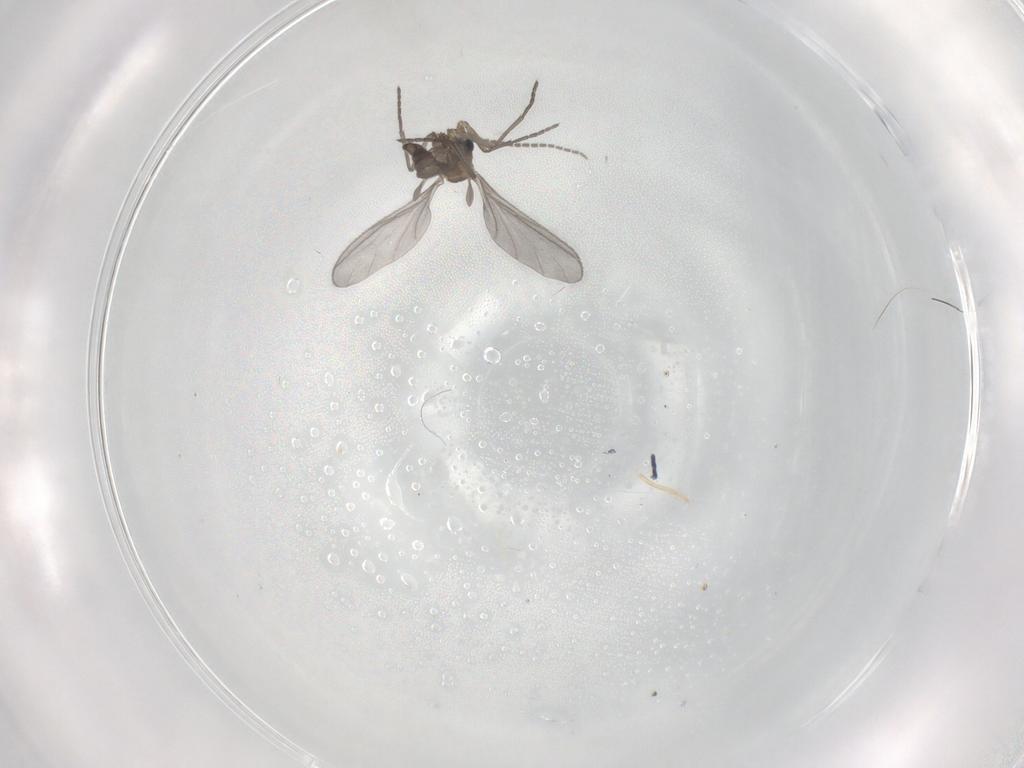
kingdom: Animalia
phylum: Arthropoda
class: Insecta
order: Diptera
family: Sciaridae
